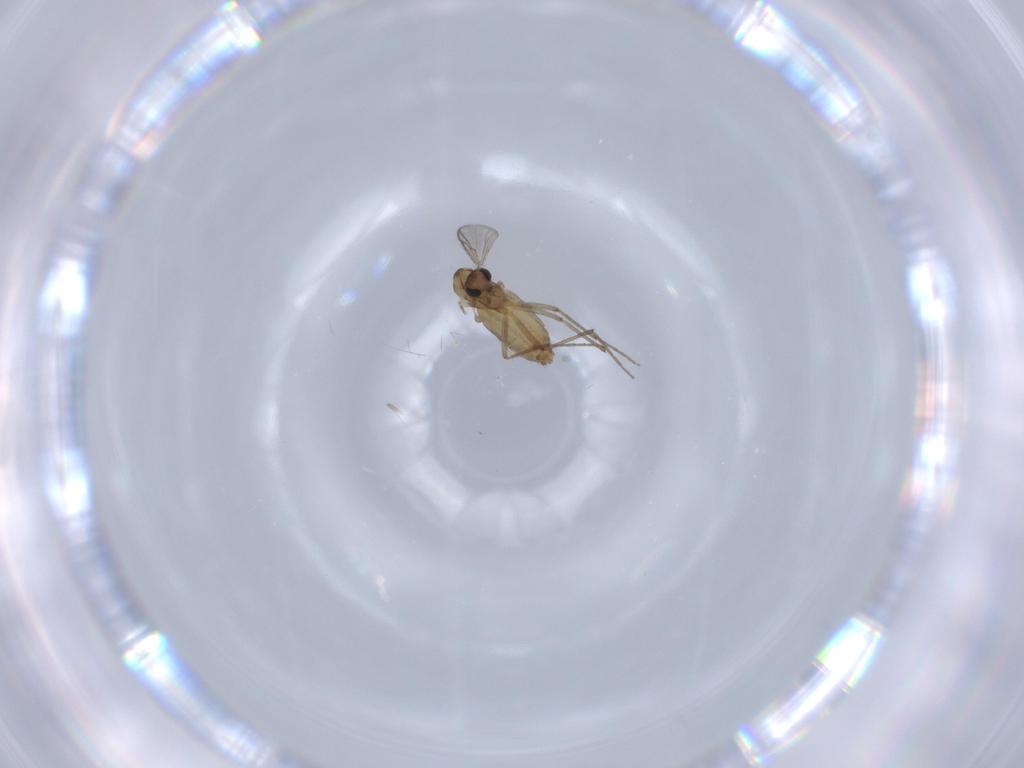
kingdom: Animalia
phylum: Arthropoda
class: Insecta
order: Diptera
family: Chironomidae
